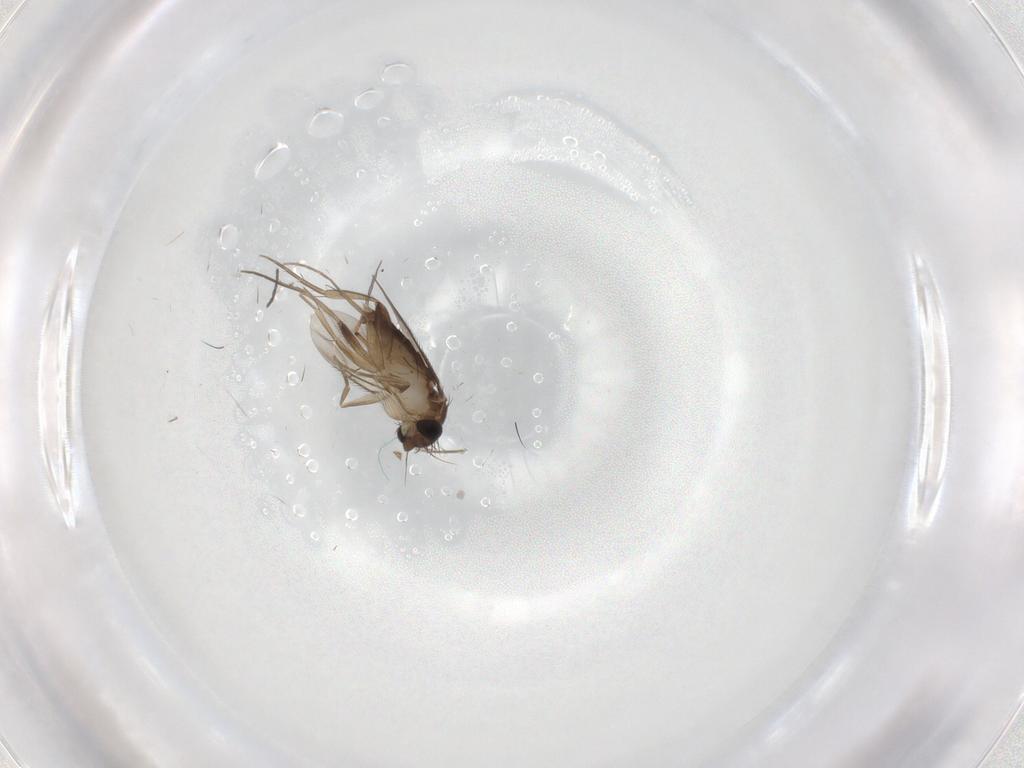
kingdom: Animalia
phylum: Arthropoda
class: Insecta
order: Diptera
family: Phoridae
